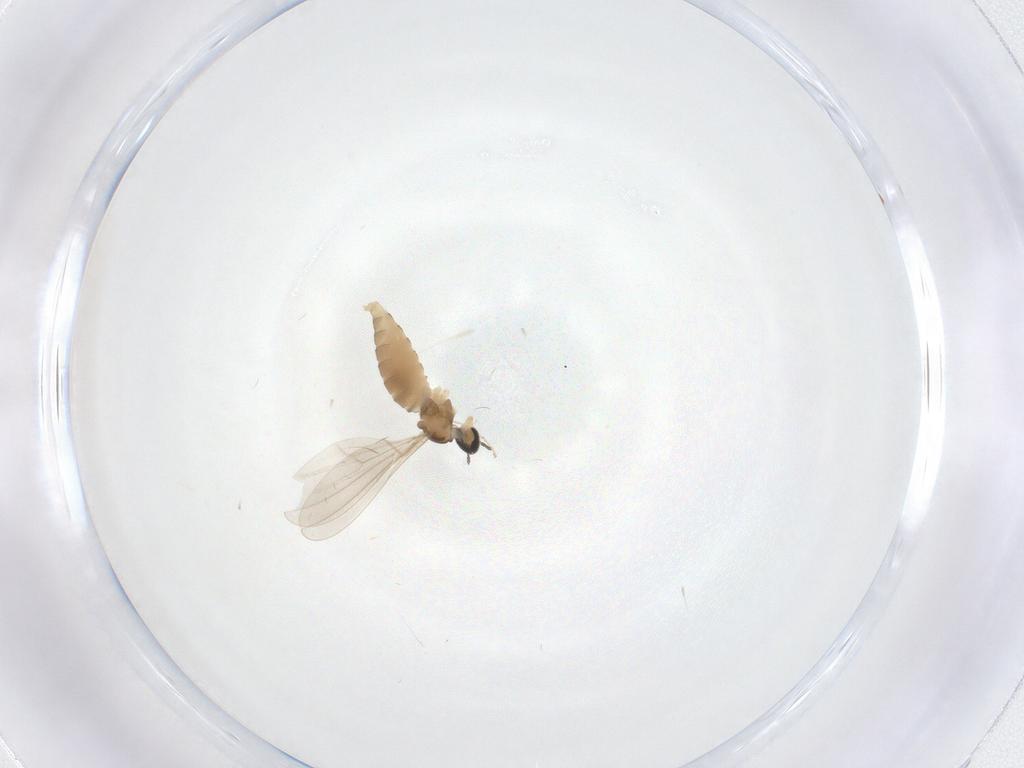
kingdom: Animalia
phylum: Arthropoda
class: Insecta
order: Diptera
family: Cecidomyiidae
